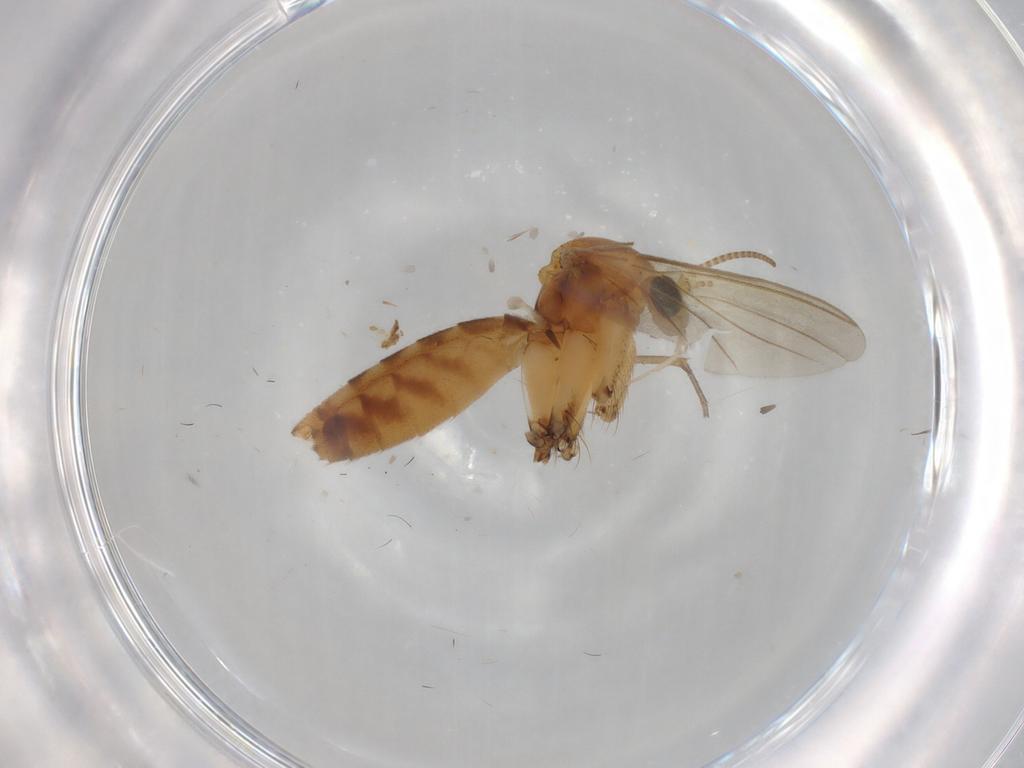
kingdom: Animalia
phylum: Arthropoda
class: Insecta
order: Diptera
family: Mycetophilidae
